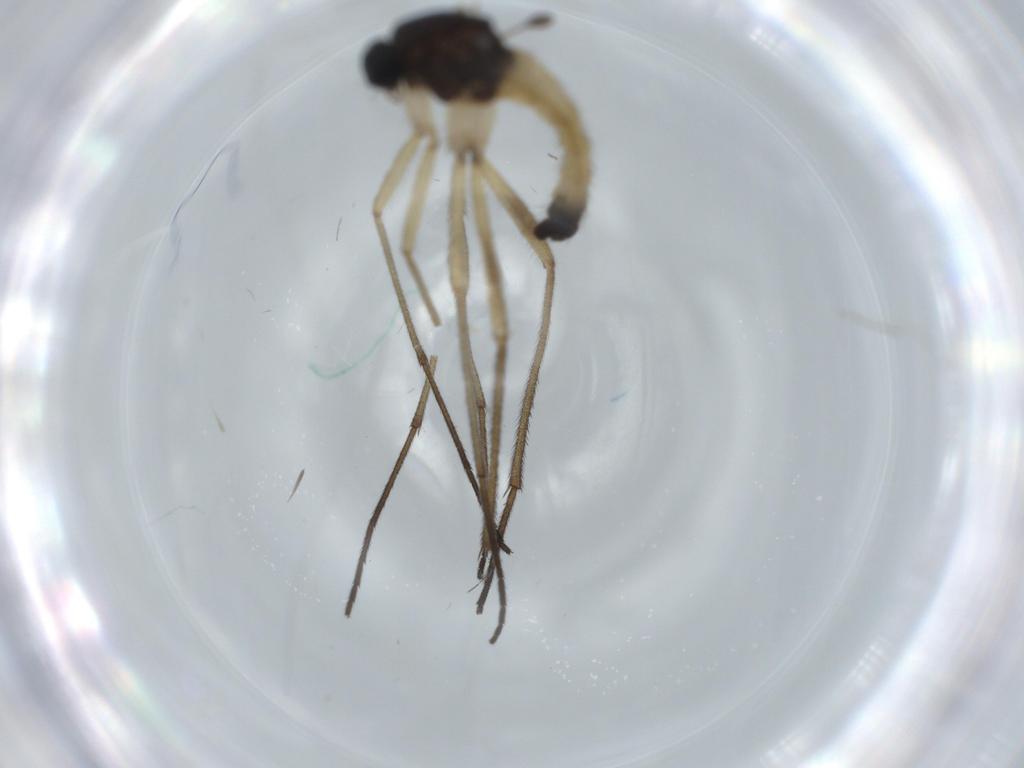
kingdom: Animalia
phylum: Arthropoda
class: Insecta
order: Diptera
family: Sciaridae
